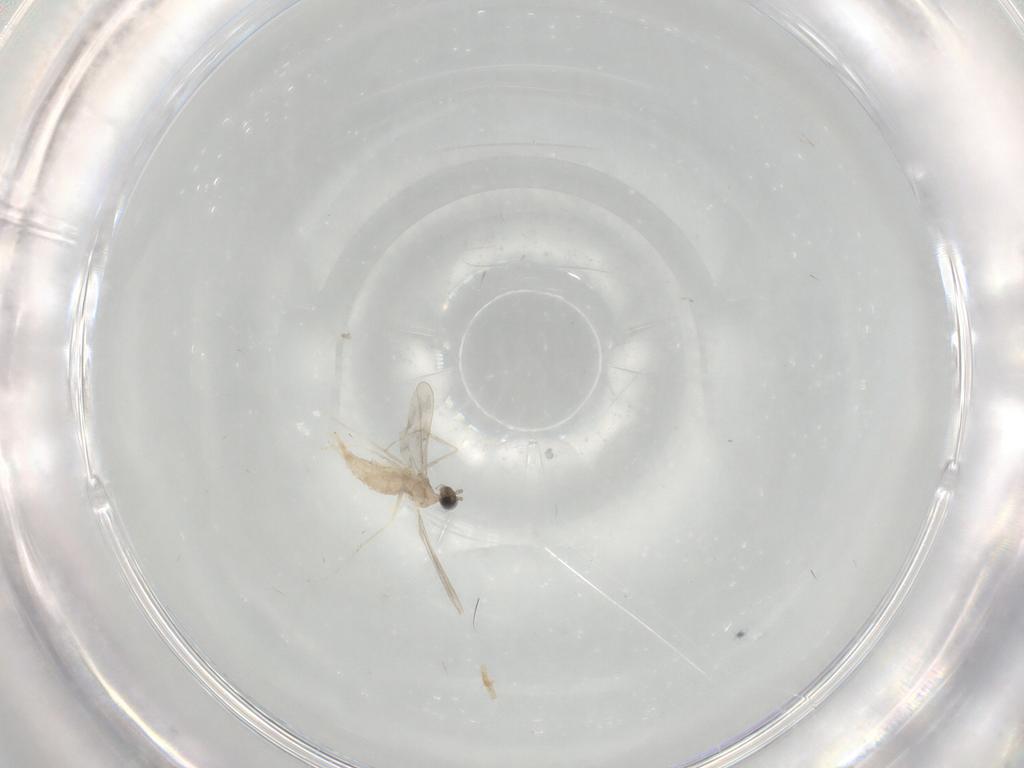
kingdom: Animalia
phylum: Arthropoda
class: Insecta
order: Diptera
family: Cecidomyiidae
